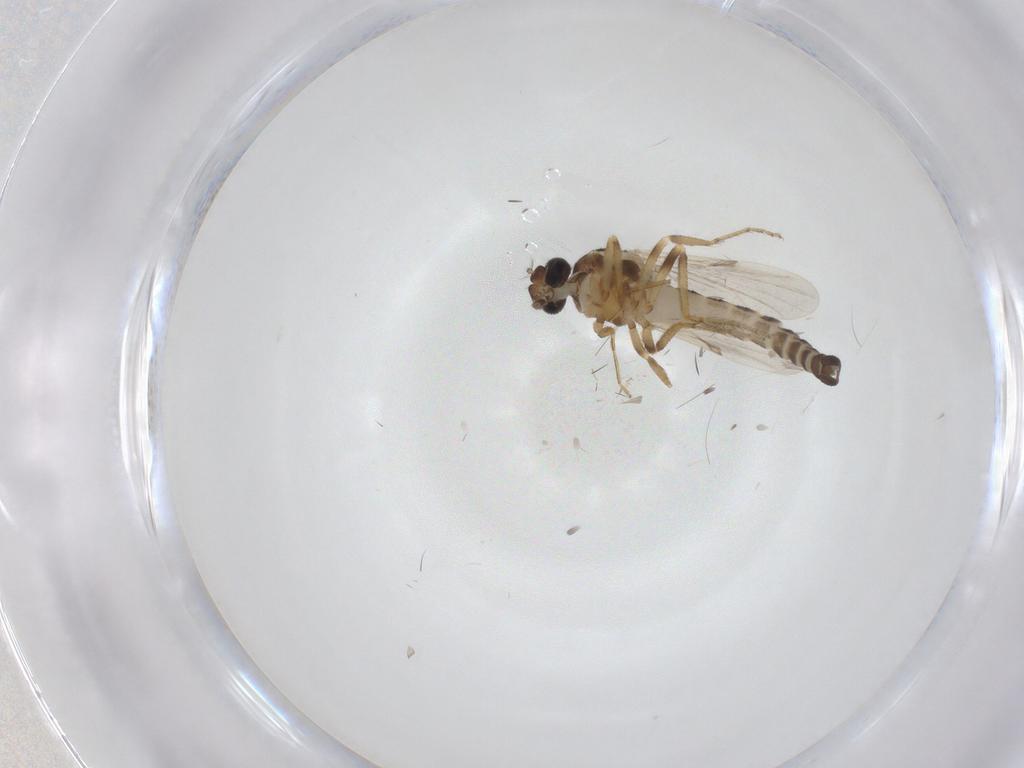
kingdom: Animalia
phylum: Arthropoda
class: Insecta
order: Diptera
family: Ceratopogonidae
